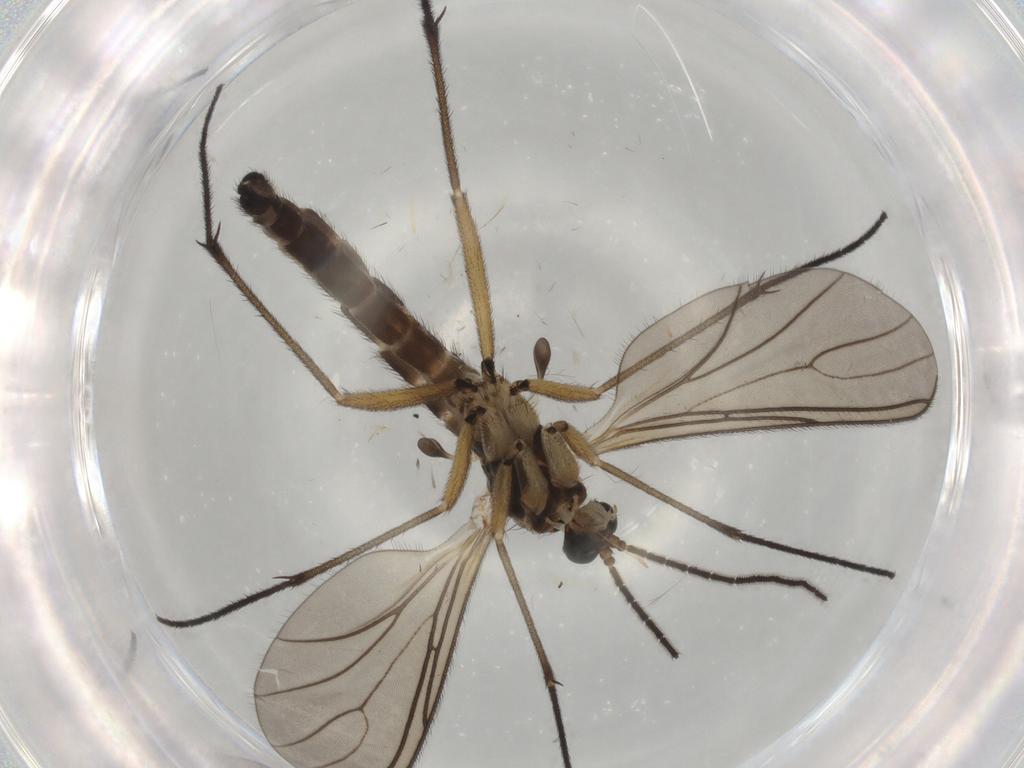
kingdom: Animalia
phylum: Arthropoda
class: Insecta
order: Diptera
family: Sciaridae
